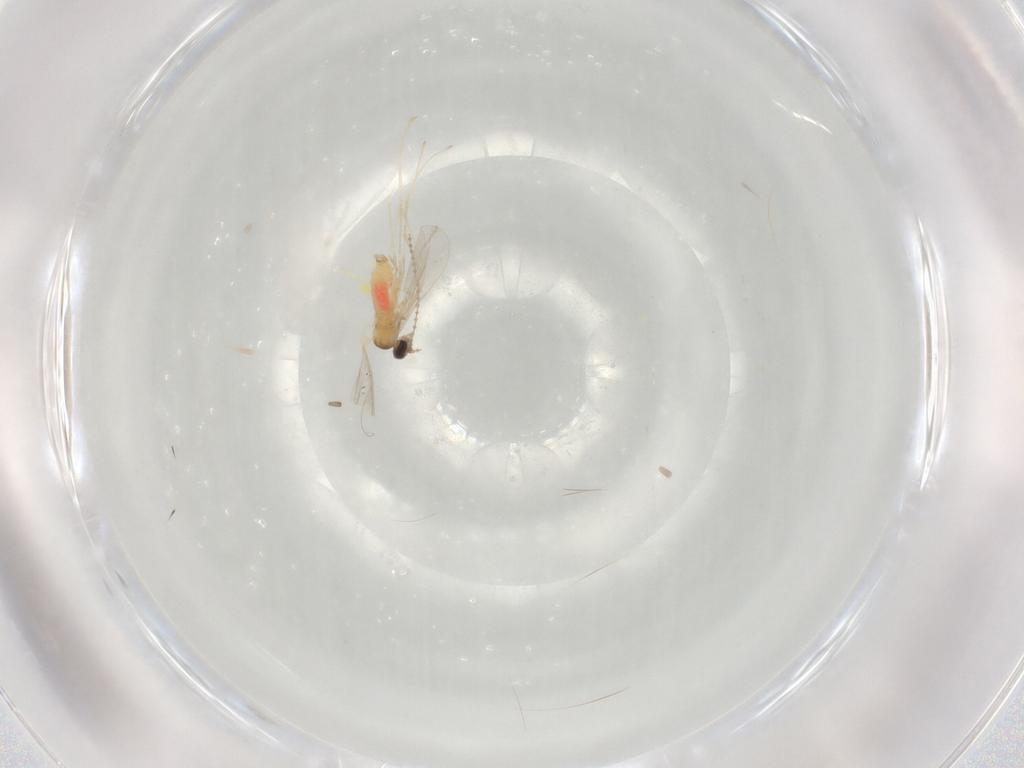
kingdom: Animalia
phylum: Arthropoda
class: Insecta
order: Diptera
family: Cecidomyiidae
